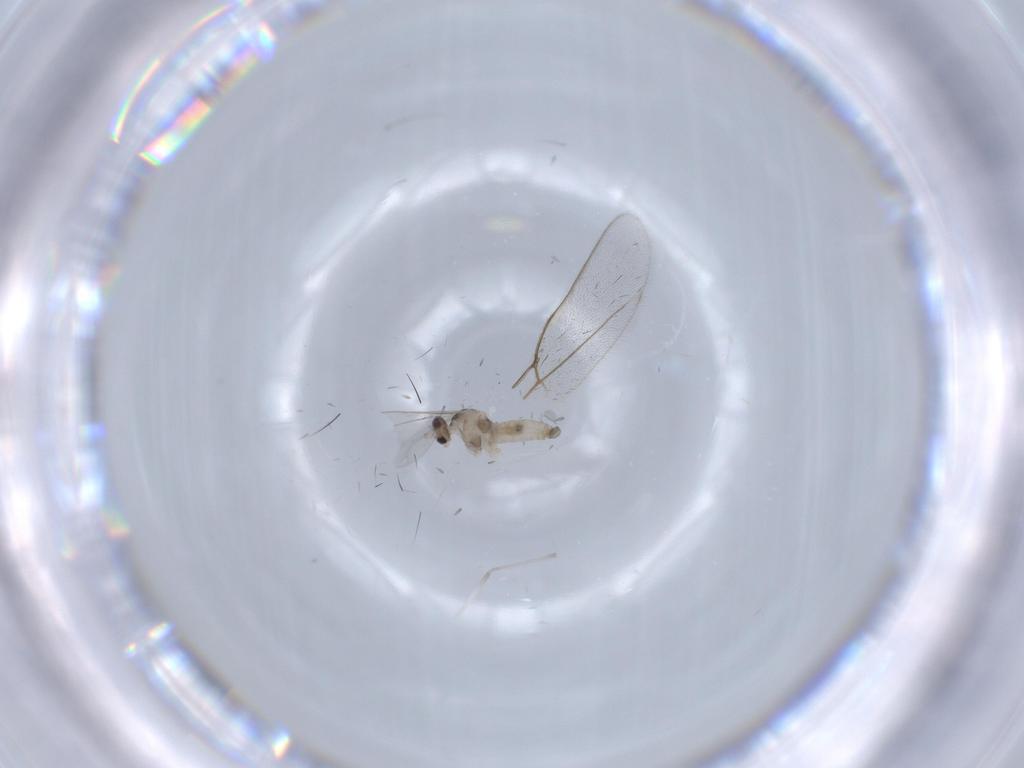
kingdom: Animalia
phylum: Arthropoda
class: Insecta
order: Diptera
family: Cecidomyiidae
